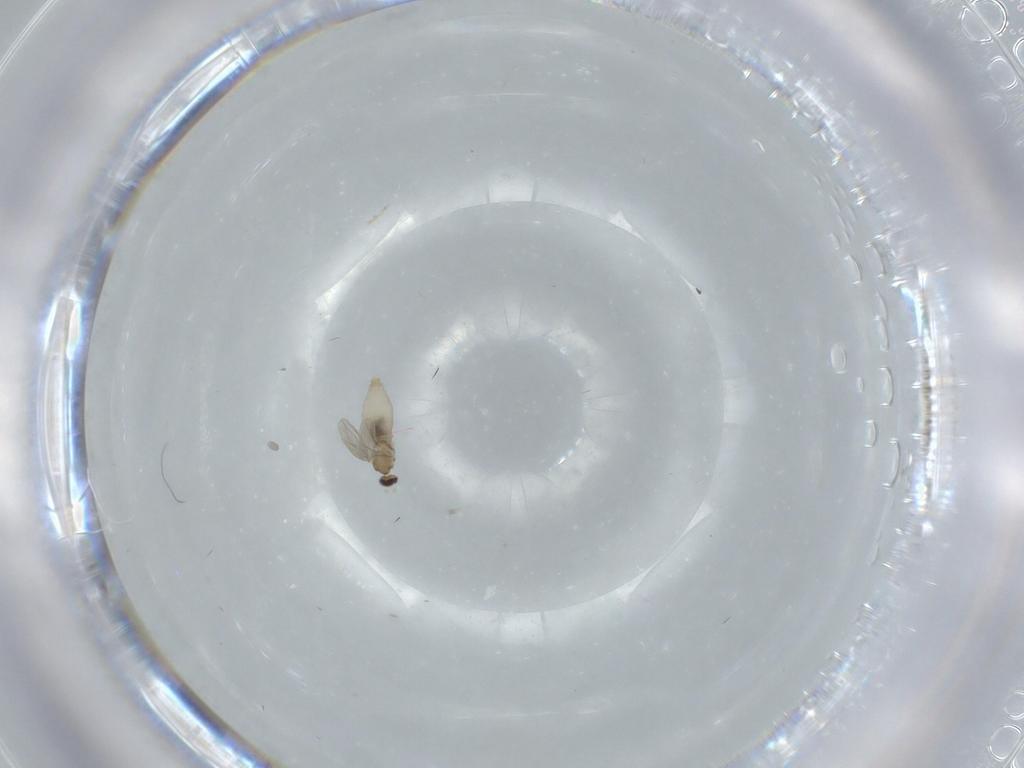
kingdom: Animalia
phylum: Arthropoda
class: Insecta
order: Diptera
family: Cecidomyiidae
